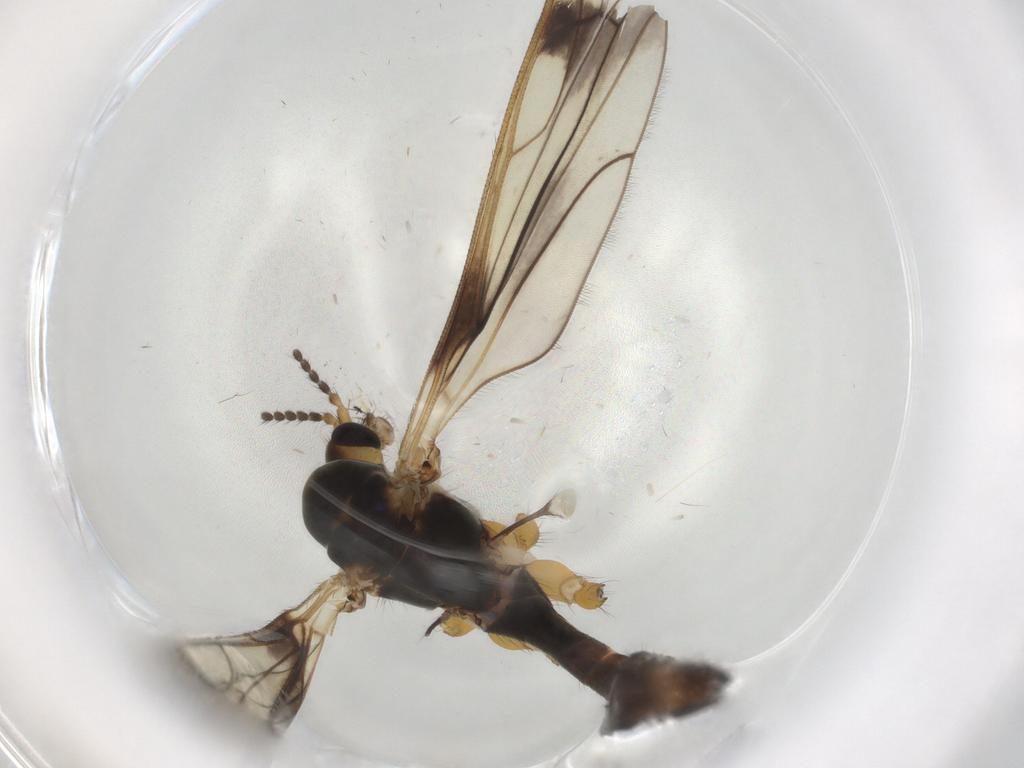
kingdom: Animalia
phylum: Arthropoda
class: Insecta
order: Diptera
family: Limoniidae
